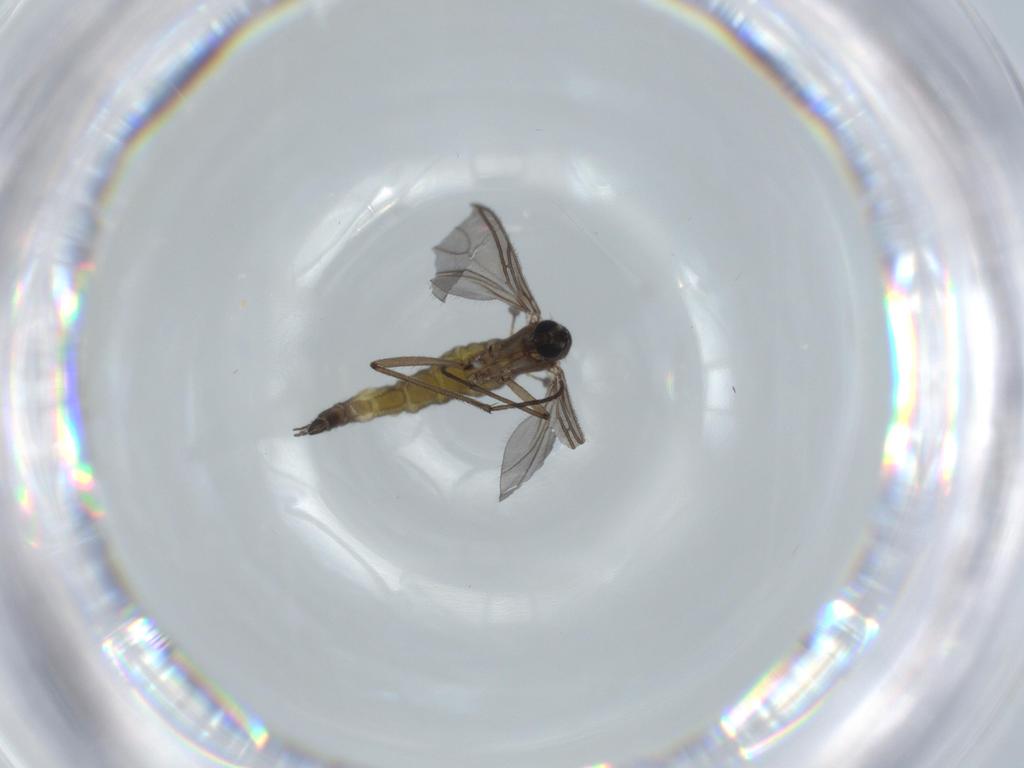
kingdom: Animalia
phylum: Arthropoda
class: Insecta
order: Diptera
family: Sciaridae
